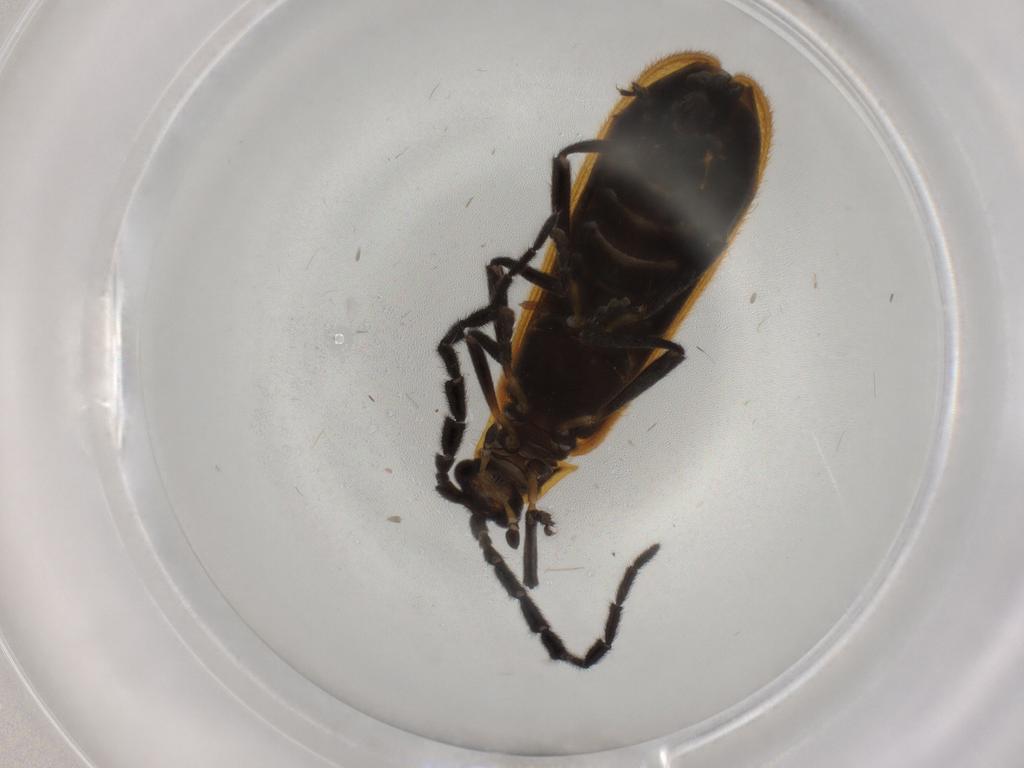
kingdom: Animalia
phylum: Arthropoda
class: Insecta
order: Coleoptera
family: Lycidae
